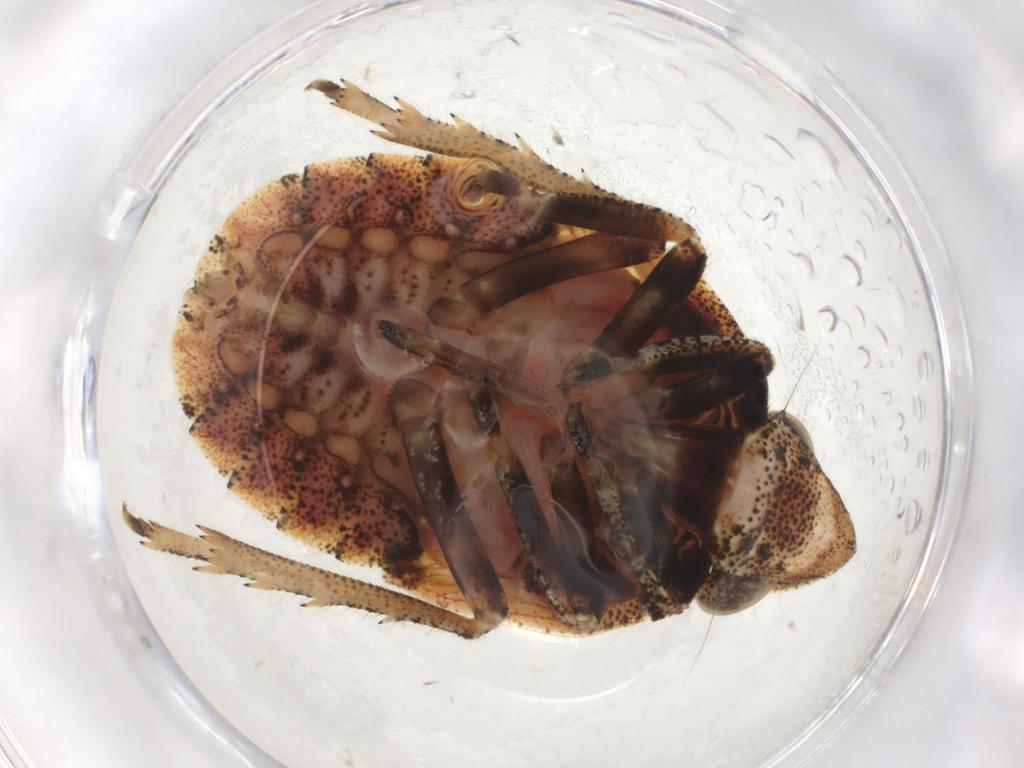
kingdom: Animalia
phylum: Arthropoda
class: Insecta
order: Hemiptera
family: Gengidae
